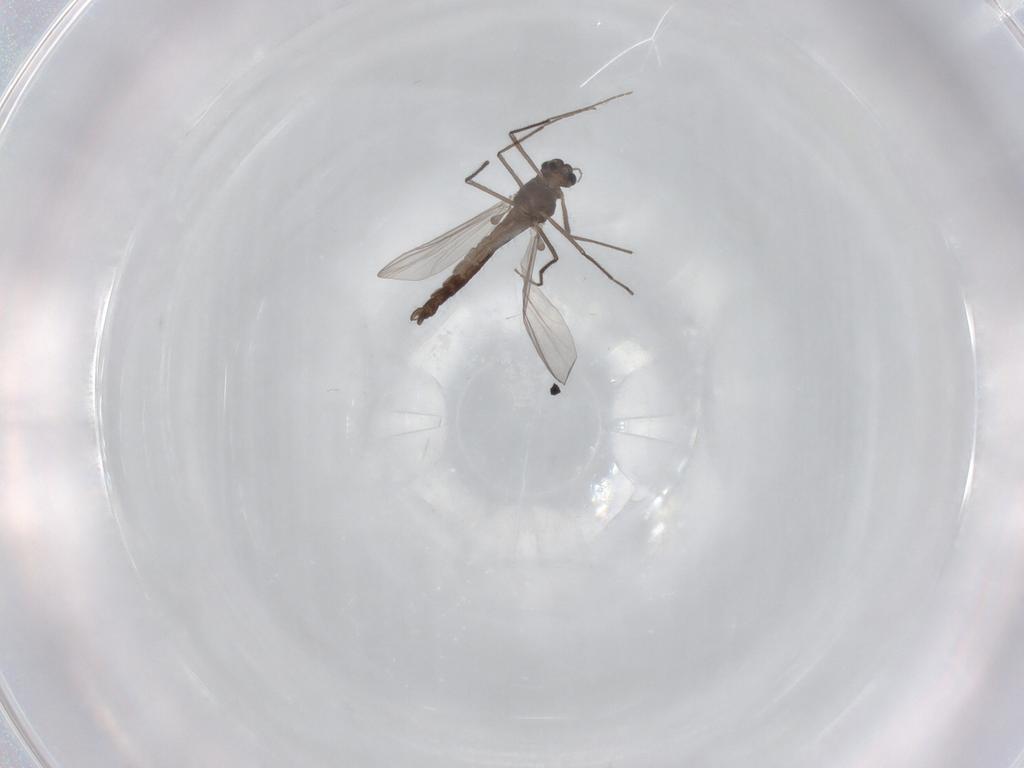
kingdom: Animalia
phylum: Arthropoda
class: Insecta
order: Diptera
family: Chironomidae
